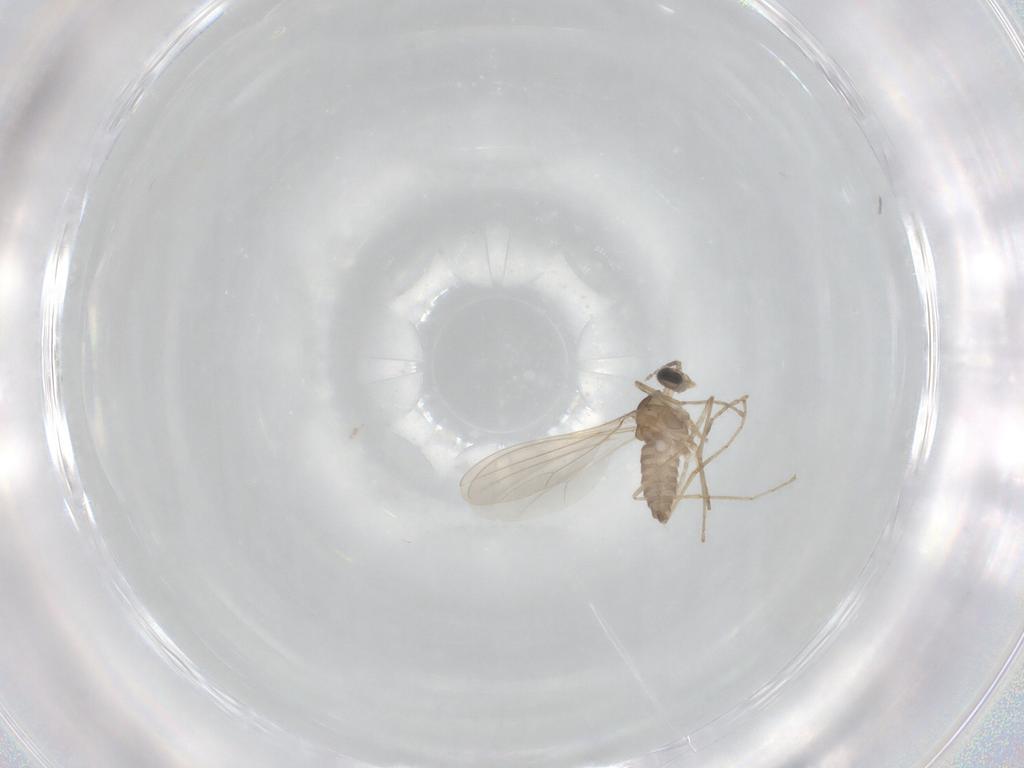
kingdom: Animalia
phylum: Arthropoda
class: Insecta
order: Diptera
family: Cecidomyiidae
